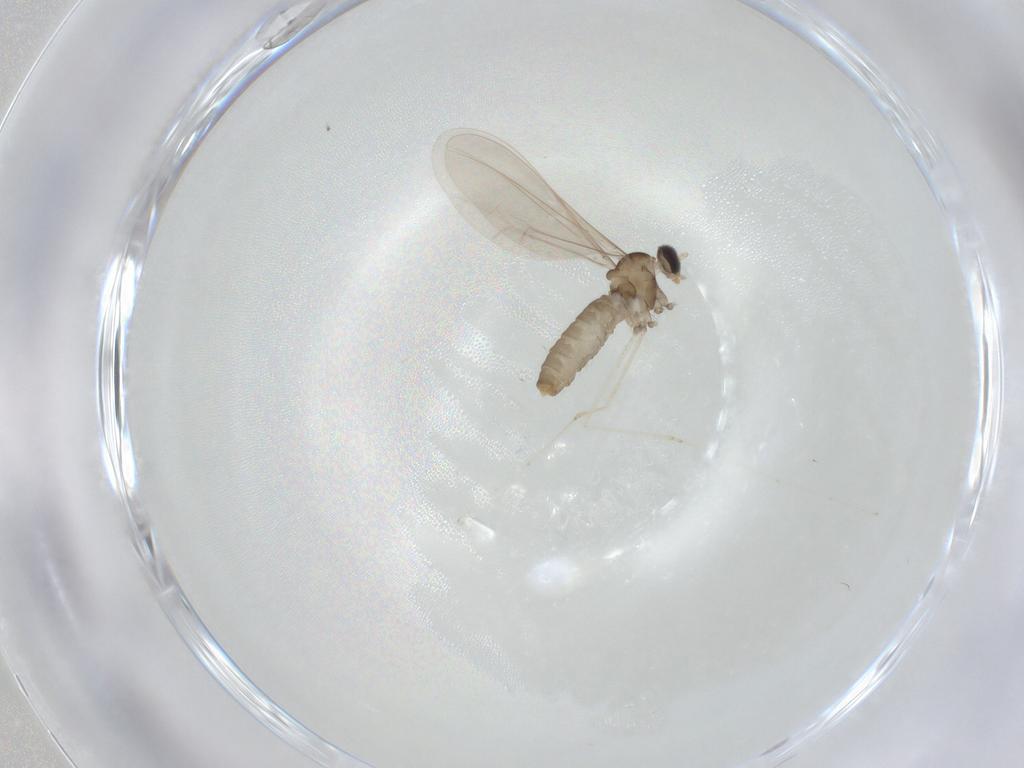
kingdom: Animalia
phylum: Arthropoda
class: Insecta
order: Diptera
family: Cecidomyiidae
